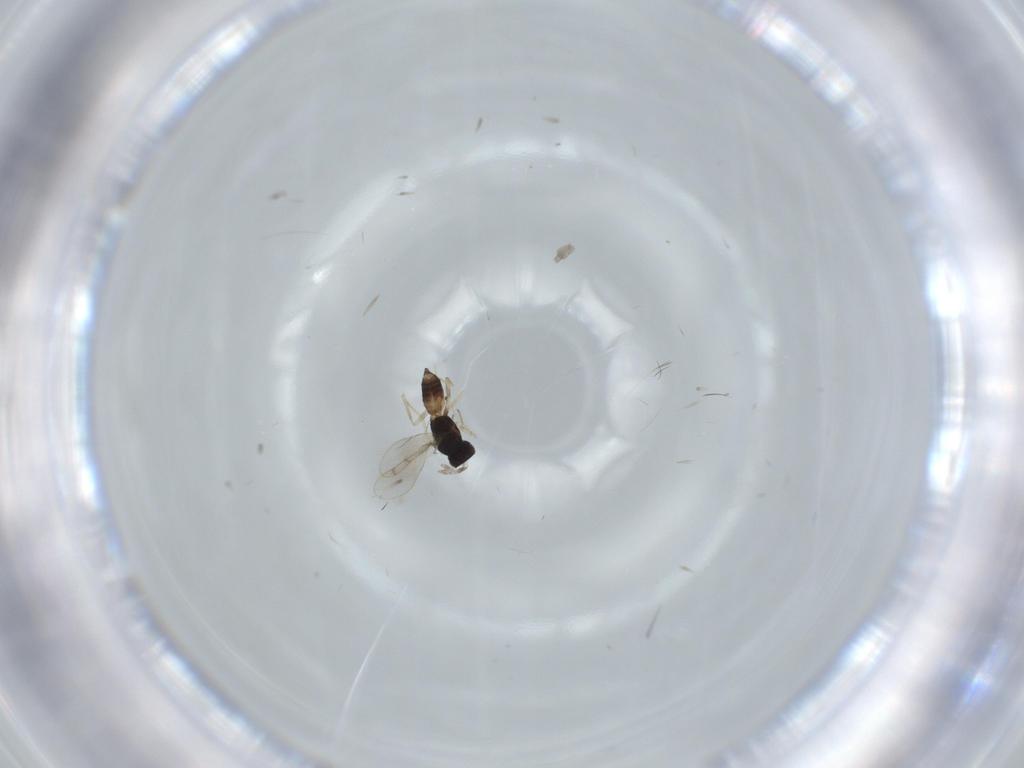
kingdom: Animalia
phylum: Arthropoda
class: Insecta
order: Hymenoptera
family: Eulophidae
